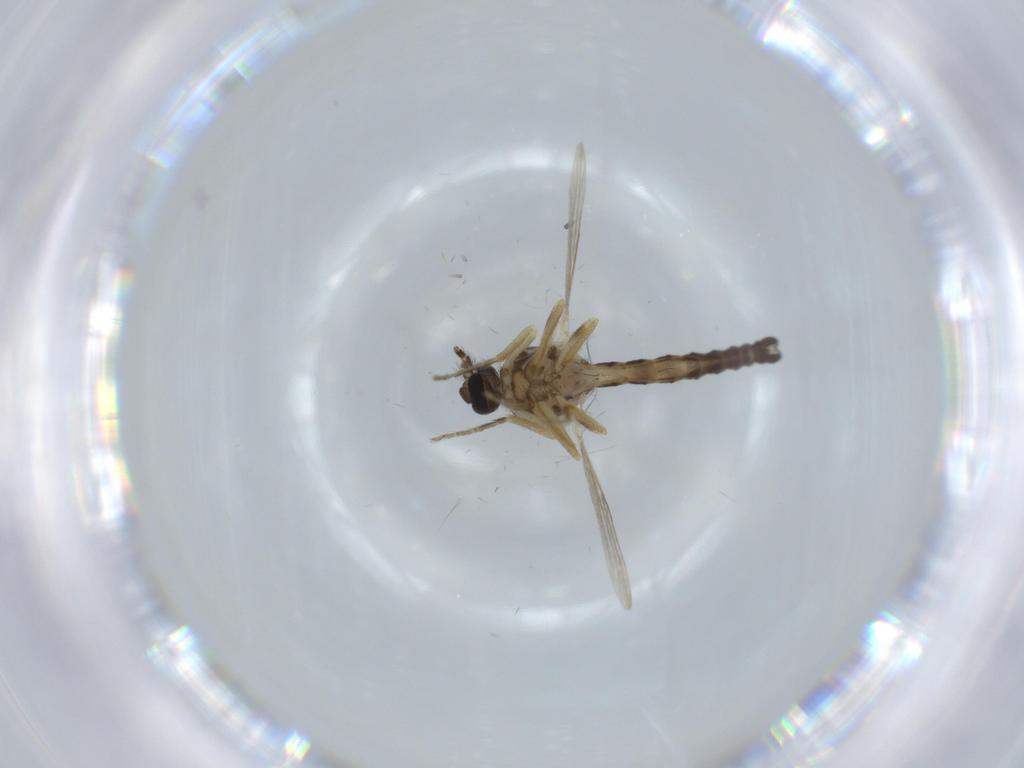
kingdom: Animalia
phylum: Arthropoda
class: Insecta
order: Diptera
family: Ceratopogonidae
